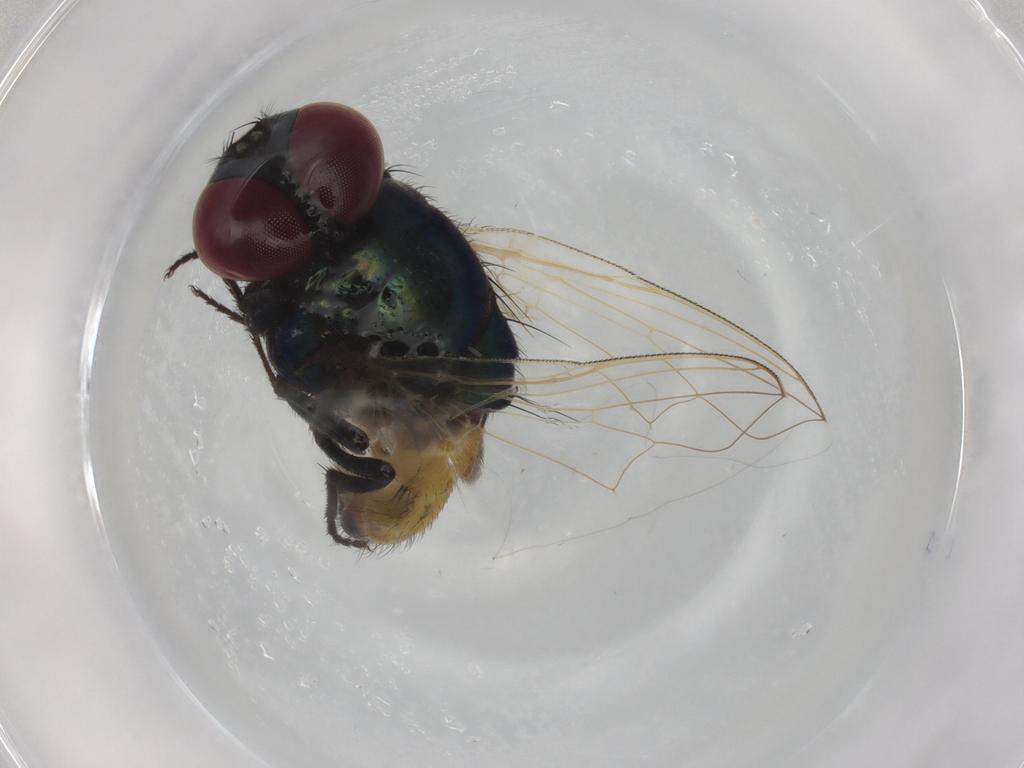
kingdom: Animalia
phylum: Arthropoda
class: Insecta
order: Diptera
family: Muscidae
